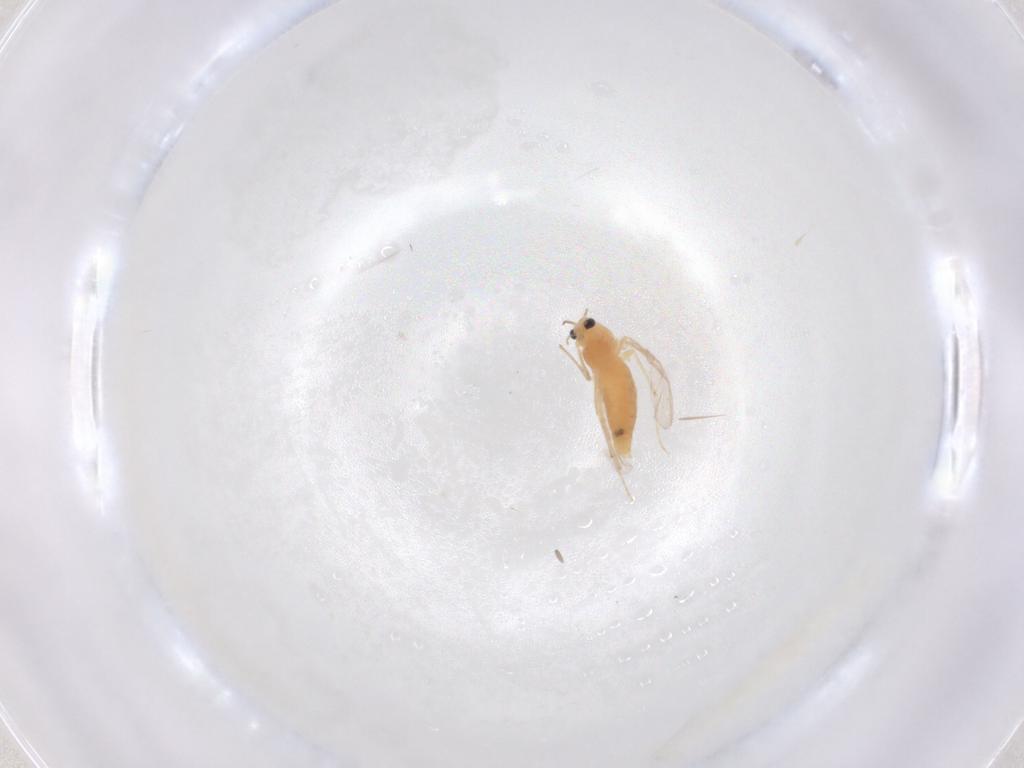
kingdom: Animalia
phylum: Arthropoda
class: Insecta
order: Diptera
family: Chironomidae
